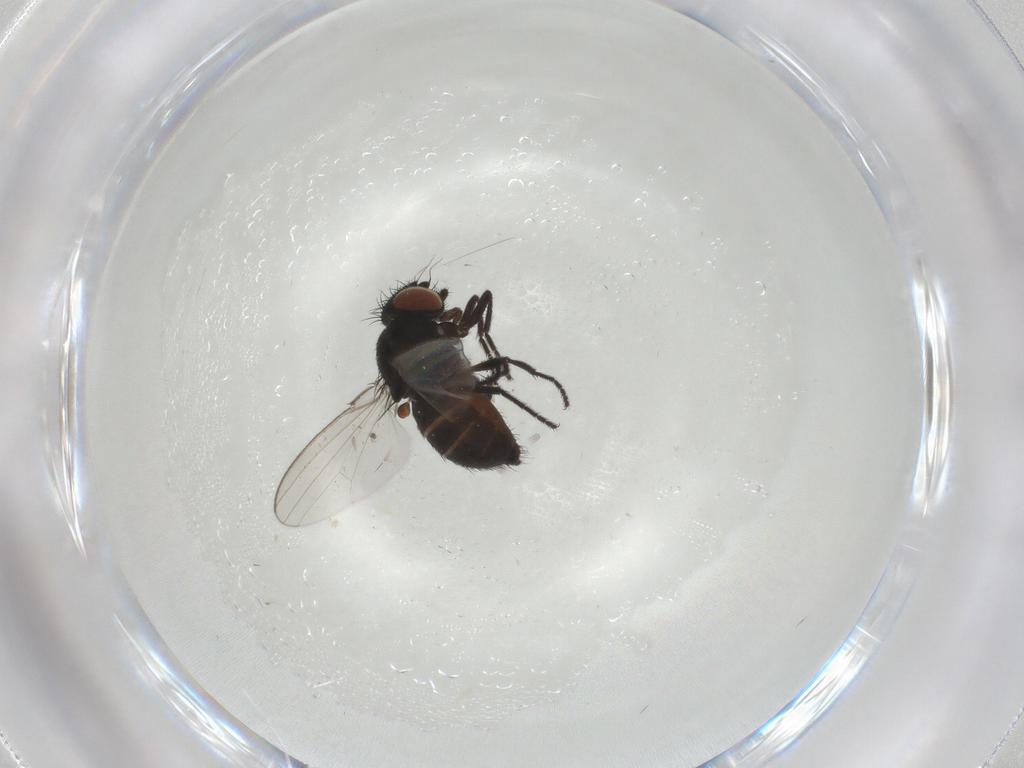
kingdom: Animalia
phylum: Arthropoda
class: Insecta
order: Diptera
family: Milichiidae
